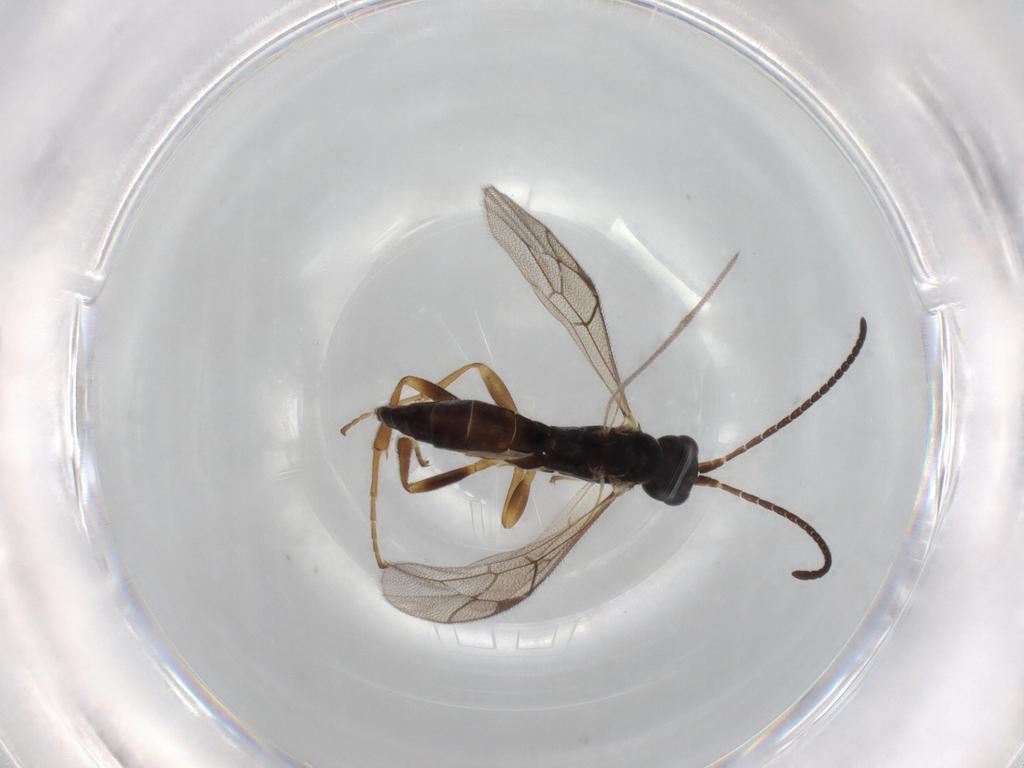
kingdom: Animalia
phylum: Arthropoda
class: Insecta
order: Hymenoptera
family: Ichneumonidae
